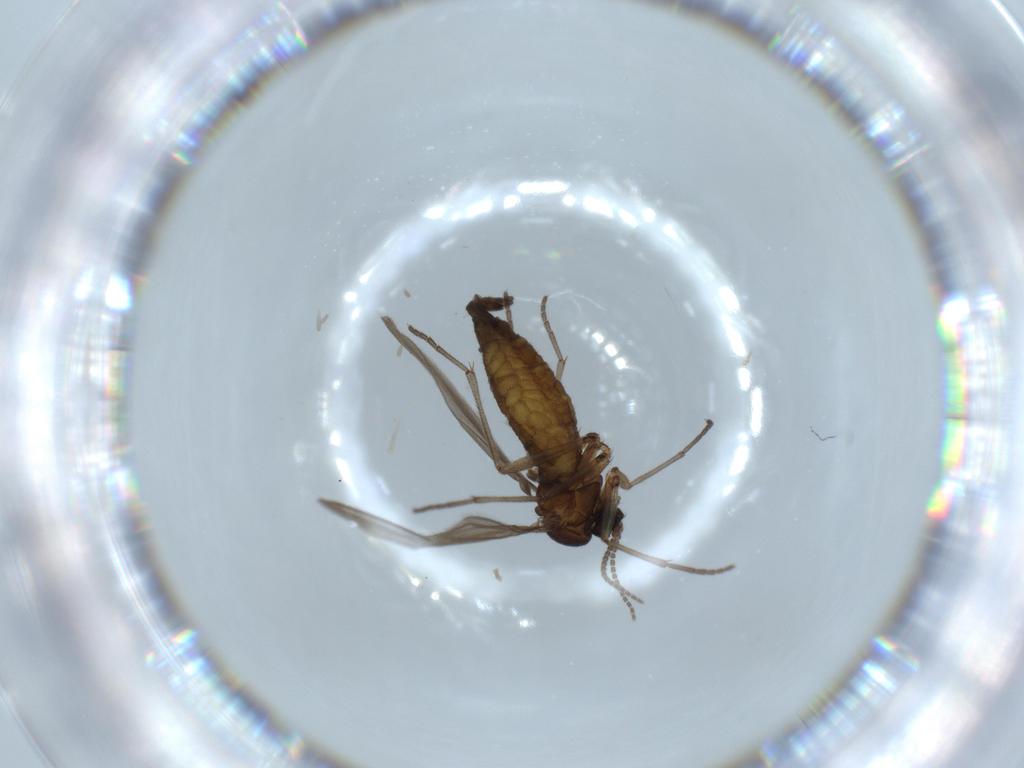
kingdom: Animalia
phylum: Arthropoda
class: Insecta
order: Diptera
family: Sciaridae
